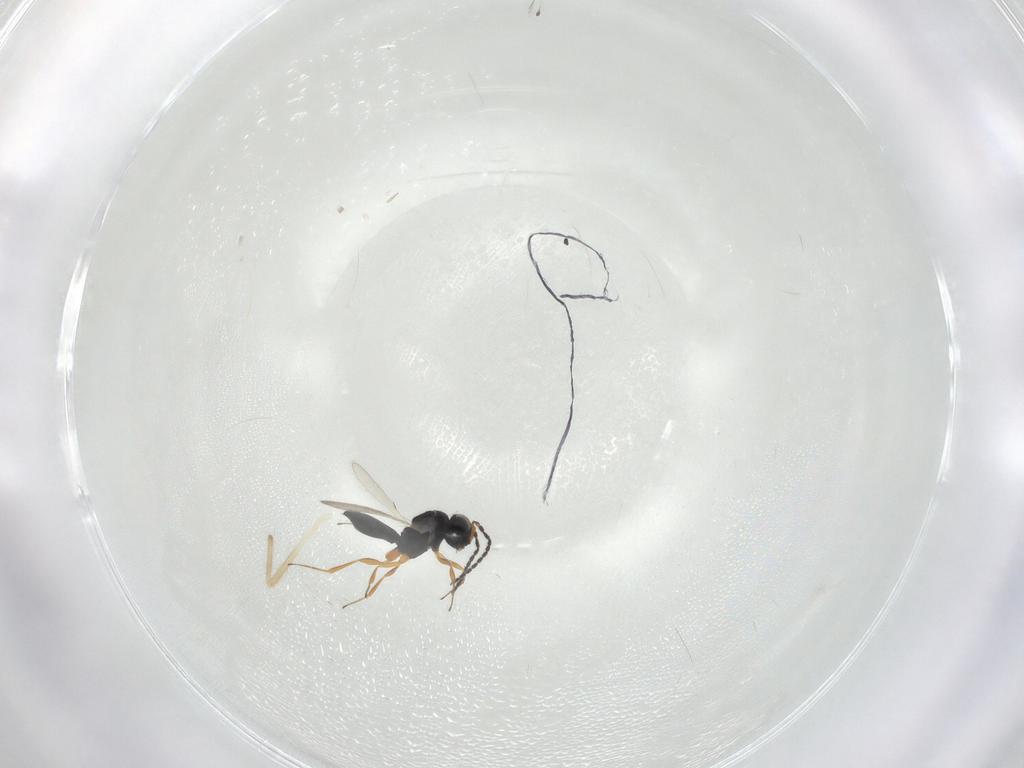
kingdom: Animalia
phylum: Arthropoda
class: Insecta
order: Hymenoptera
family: Scelionidae
